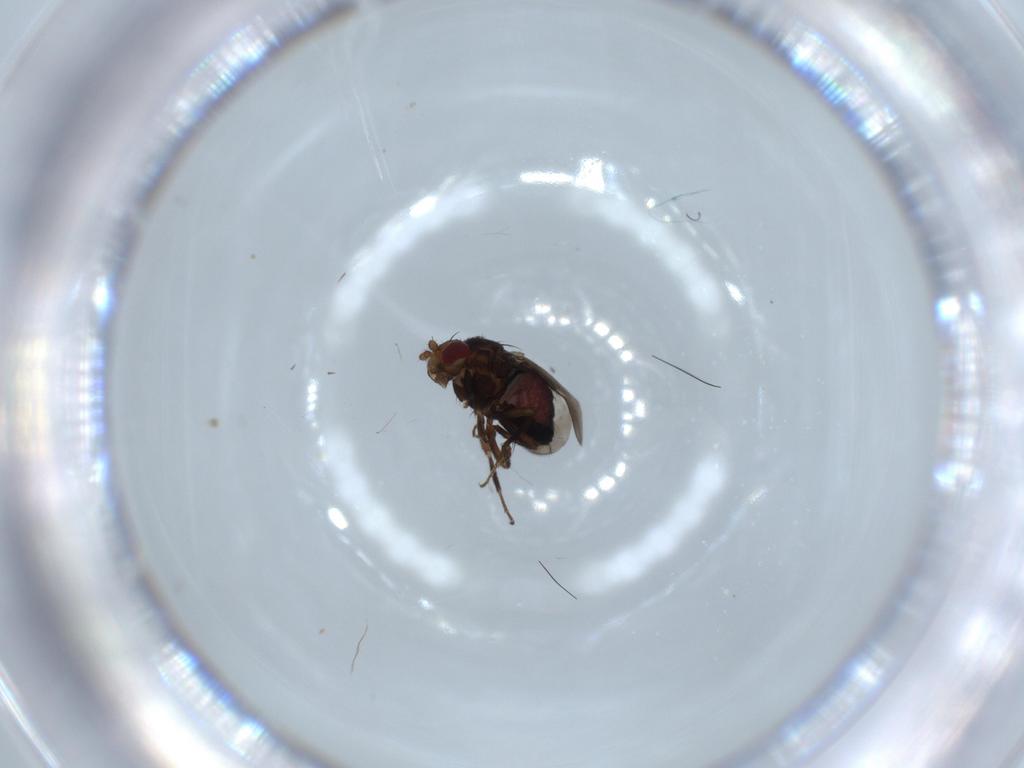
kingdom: Animalia
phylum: Arthropoda
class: Insecta
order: Diptera
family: Sphaeroceridae
